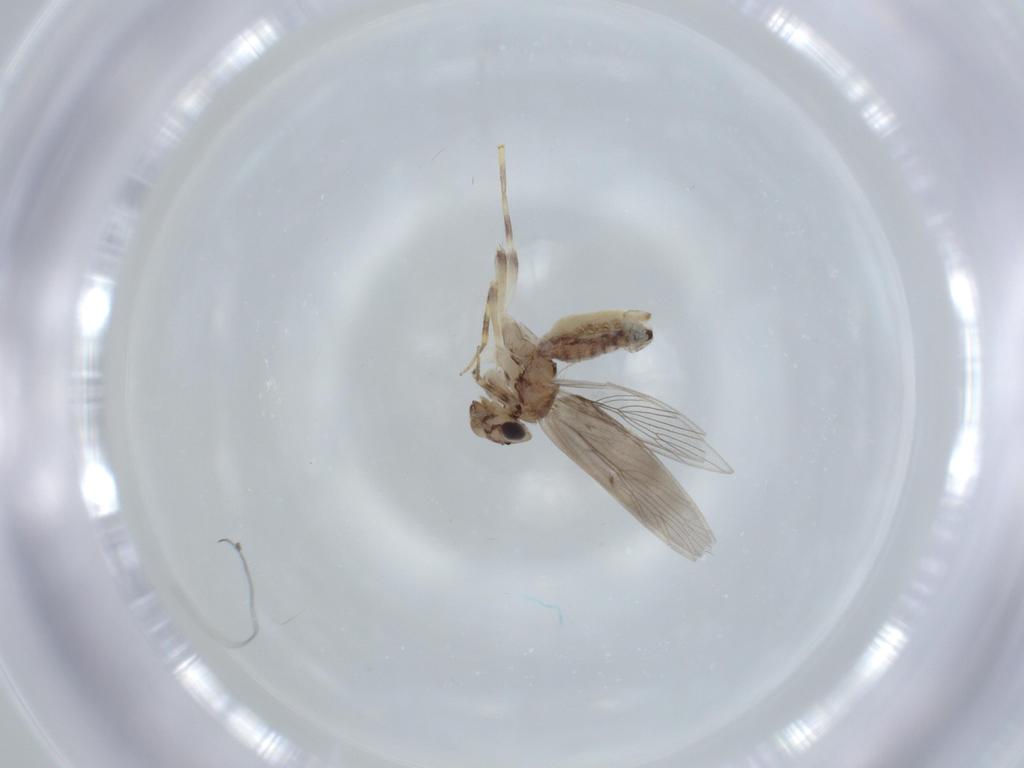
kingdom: Animalia
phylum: Arthropoda
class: Insecta
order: Psocodea
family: Lepidopsocidae
